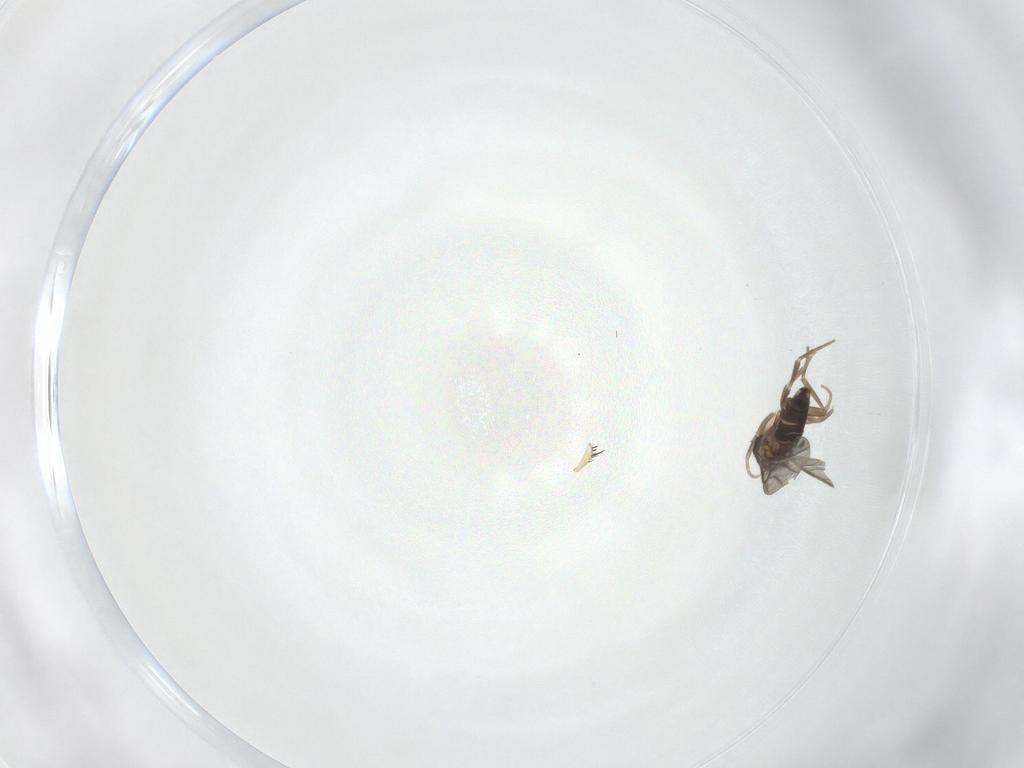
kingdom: Animalia
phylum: Arthropoda
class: Insecta
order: Diptera
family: Phoridae
